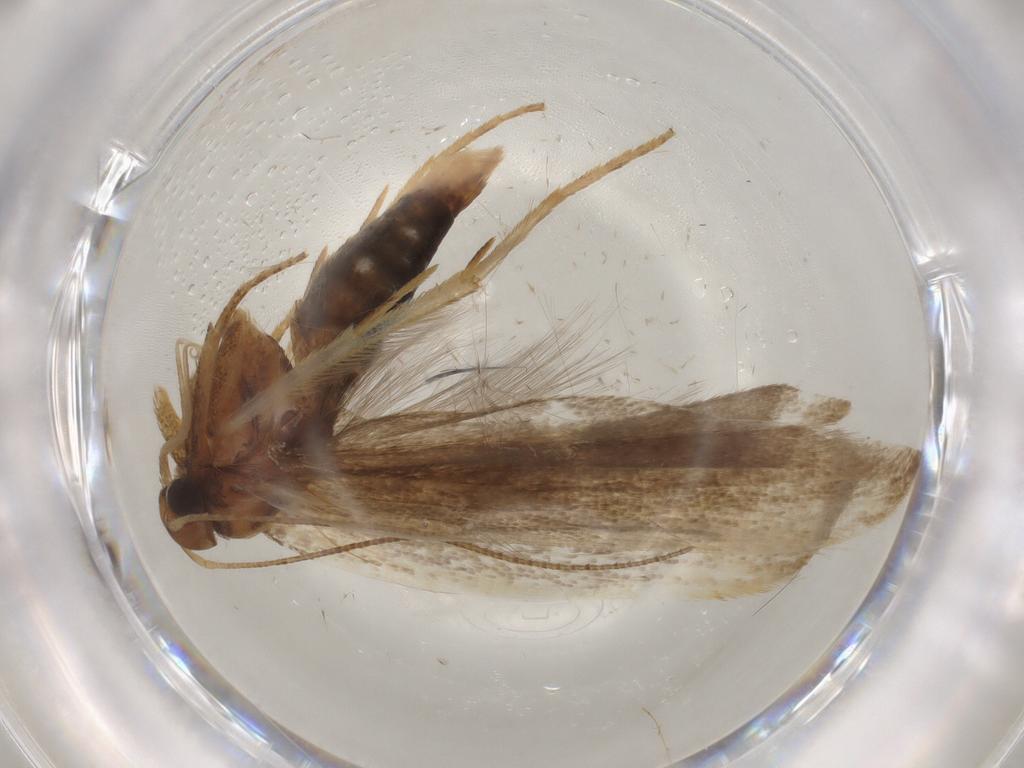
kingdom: Animalia
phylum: Arthropoda
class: Insecta
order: Lepidoptera
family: Gelechiidae
